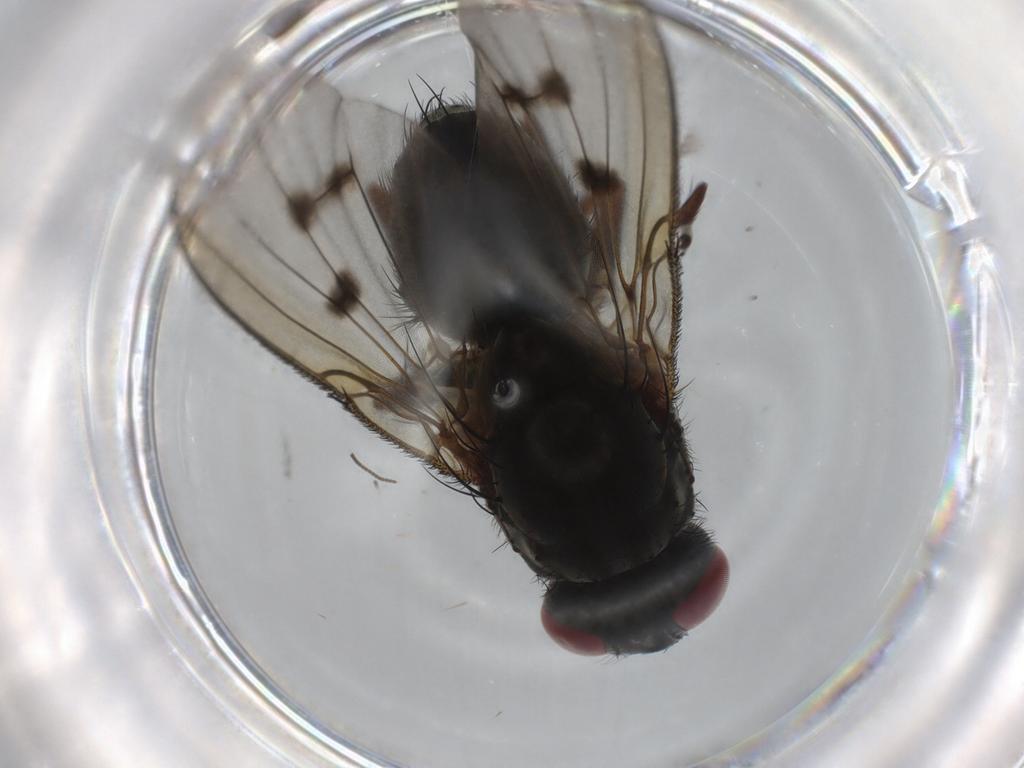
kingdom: Animalia
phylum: Arthropoda
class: Insecta
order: Diptera
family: Muscidae
